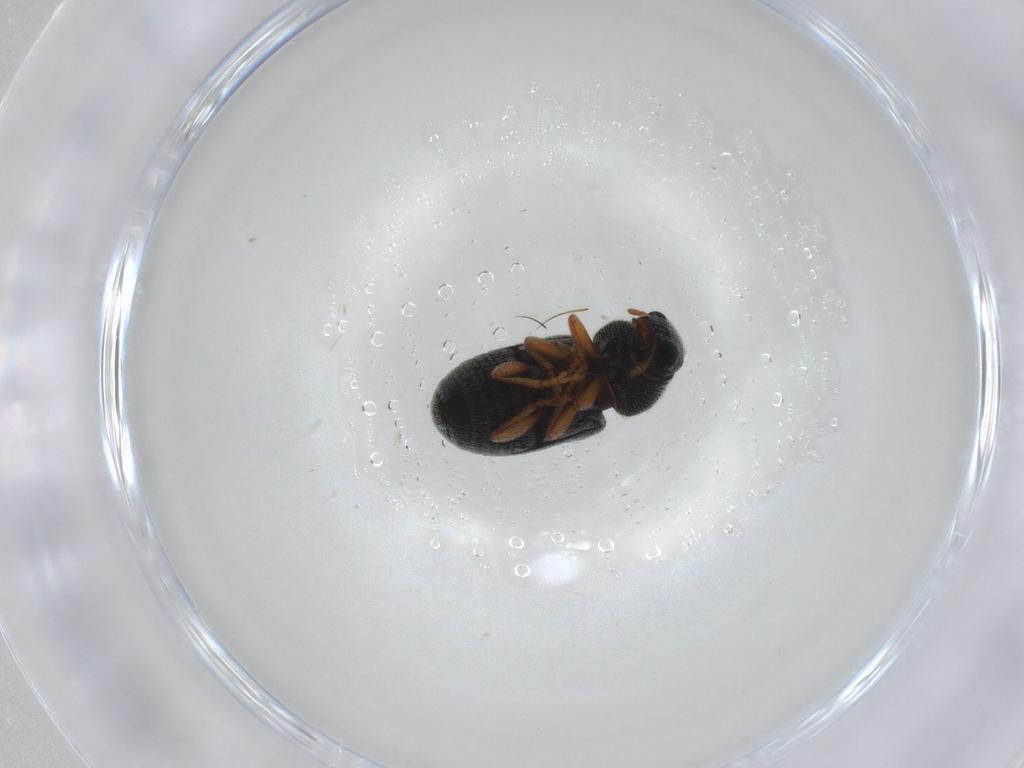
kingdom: Animalia
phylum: Arthropoda
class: Insecta
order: Coleoptera
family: Anthribidae
